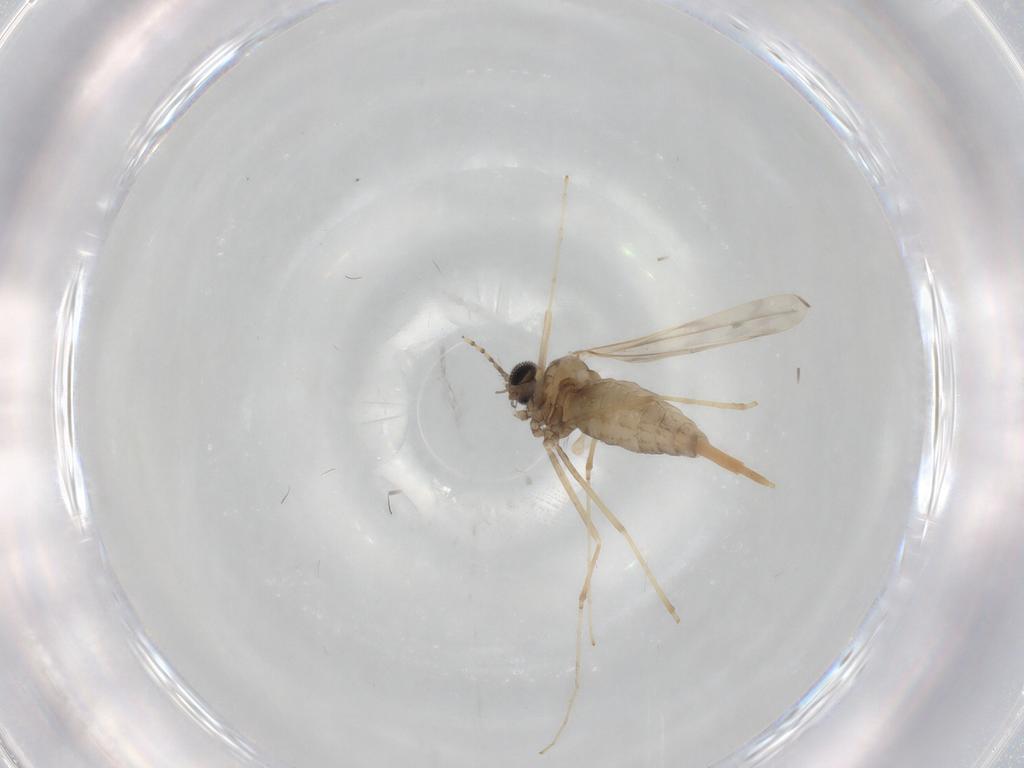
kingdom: Animalia
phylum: Arthropoda
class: Insecta
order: Diptera
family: Cecidomyiidae
